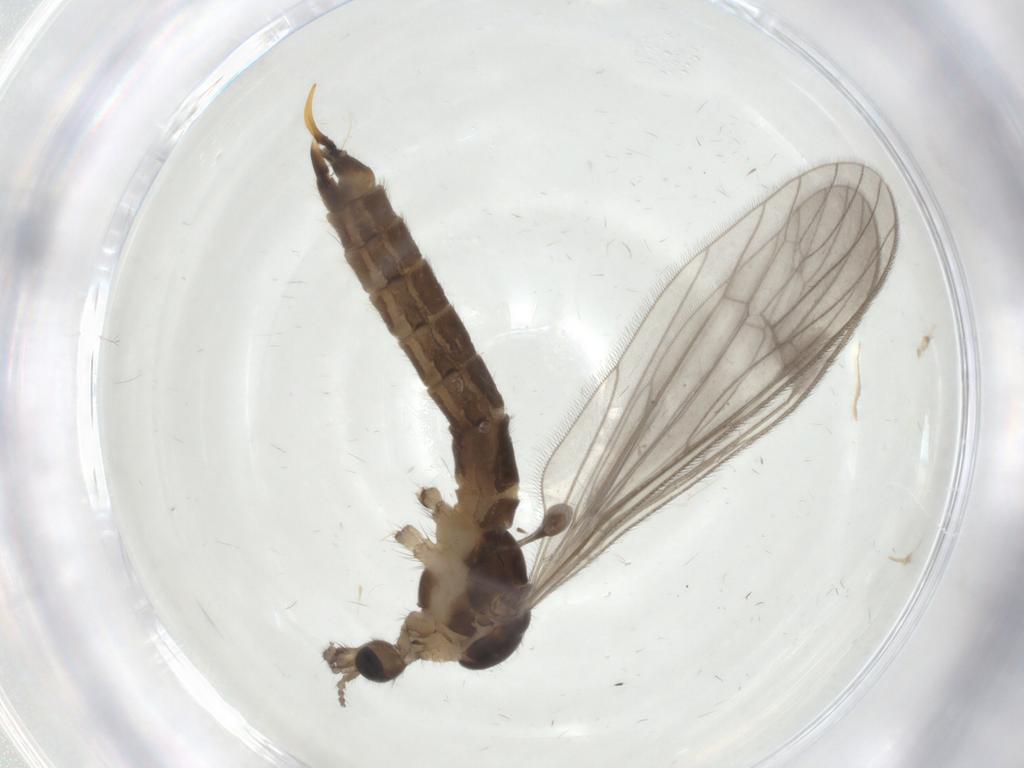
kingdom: Animalia
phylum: Arthropoda
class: Insecta
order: Diptera
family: Limoniidae
